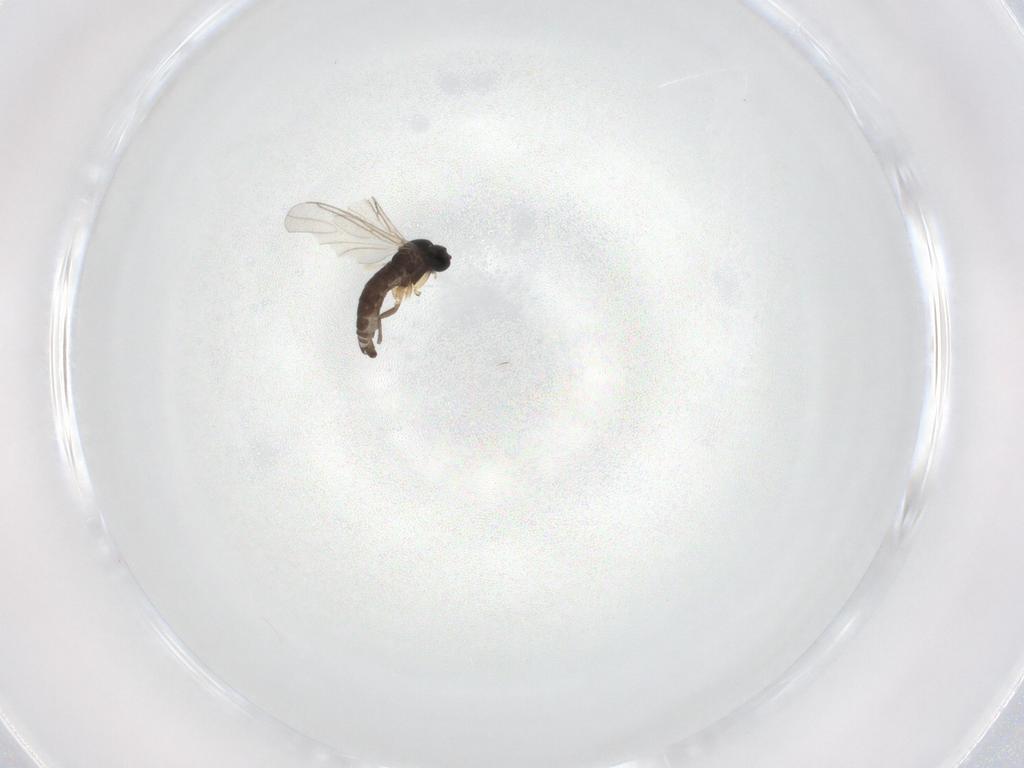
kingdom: Animalia
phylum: Arthropoda
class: Insecta
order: Diptera
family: Sciaridae
